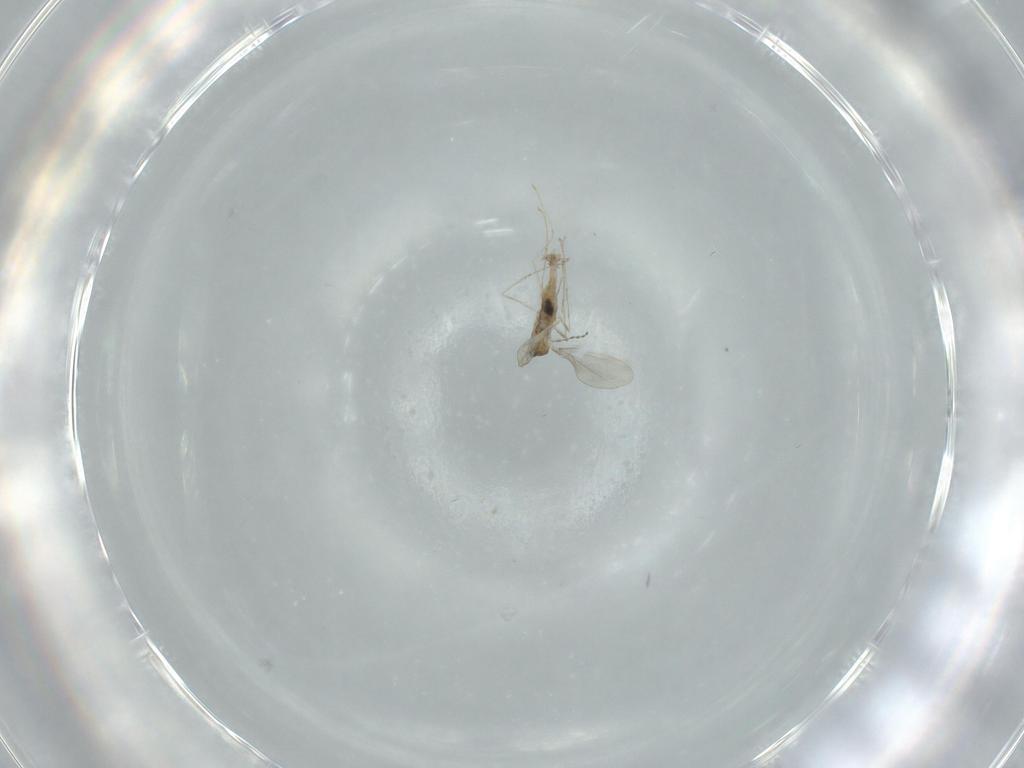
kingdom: Animalia
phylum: Arthropoda
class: Insecta
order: Diptera
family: Cecidomyiidae
